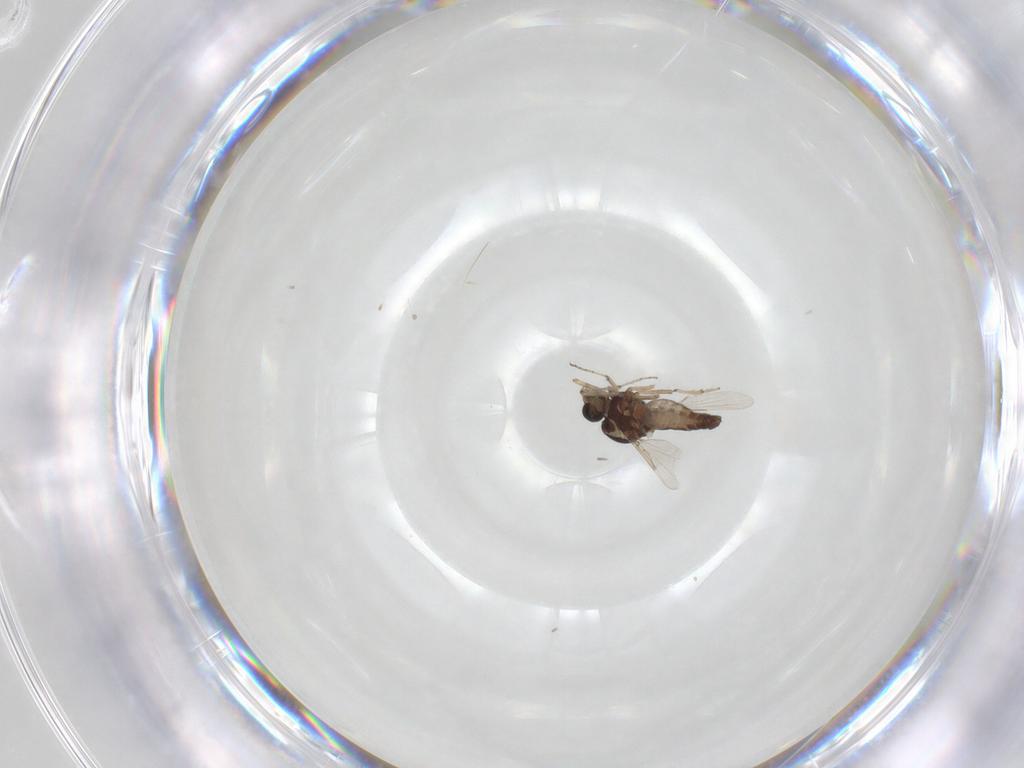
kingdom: Animalia
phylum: Arthropoda
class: Insecta
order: Diptera
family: Ceratopogonidae
